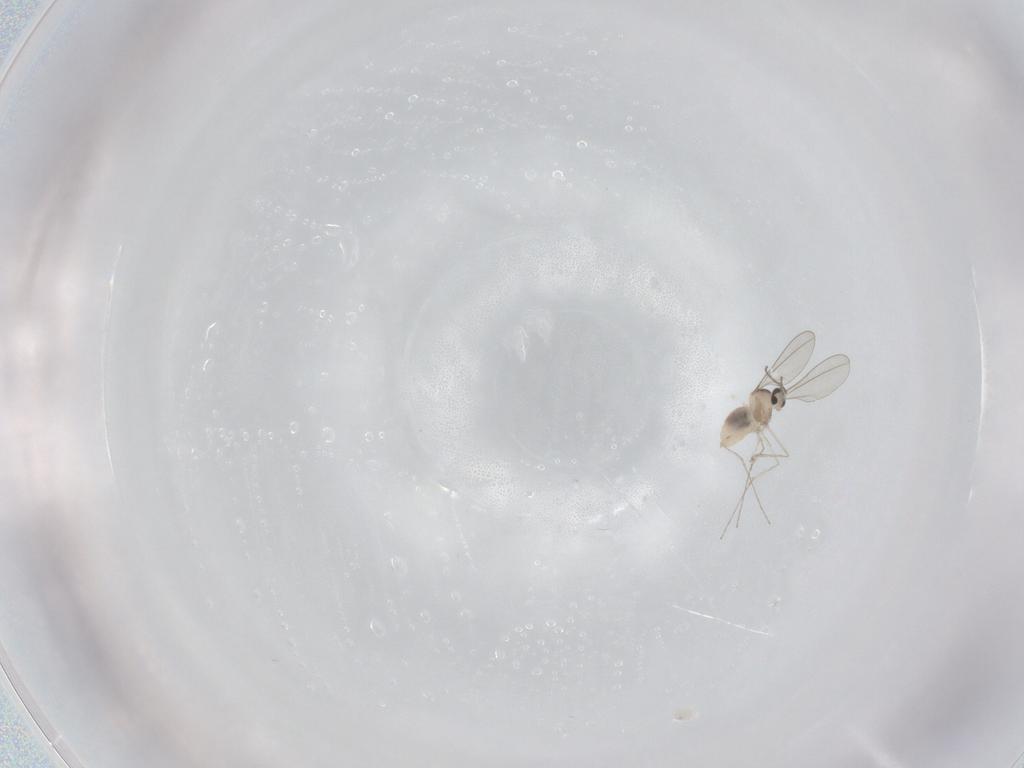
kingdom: Animalia
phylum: Arthropoda
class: Insecta
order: Diptera
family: Cecidomyiidae
